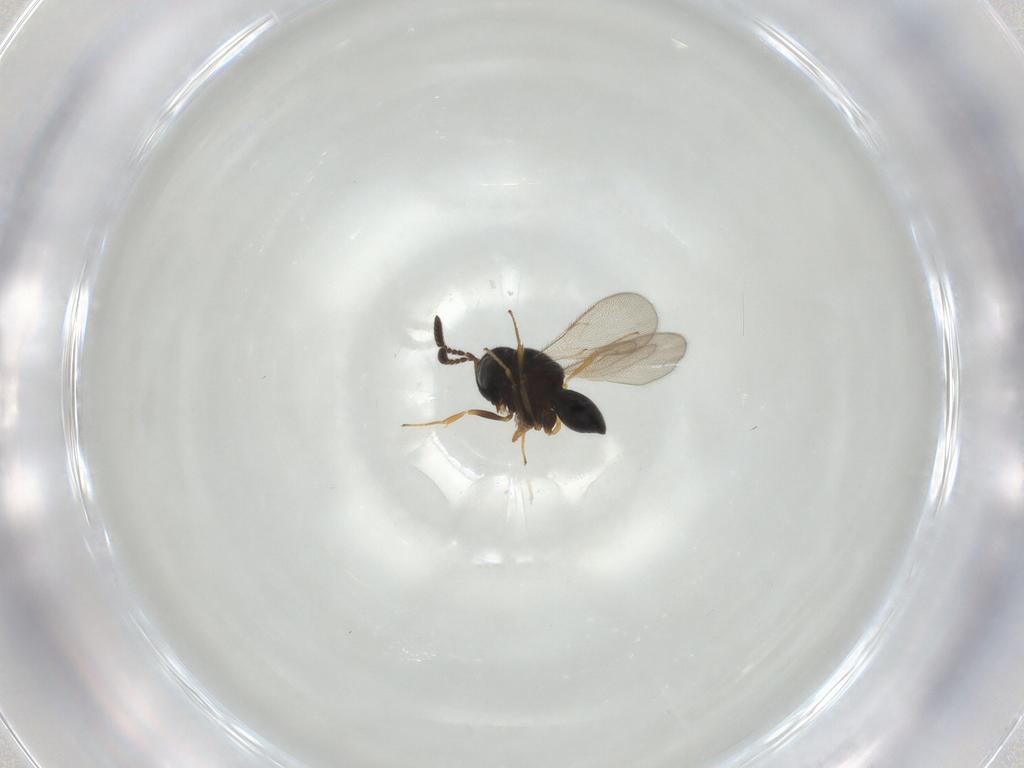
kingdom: Animalia
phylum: Arthropoda
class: Insecta
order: Hymenoptera
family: Scelionidae
